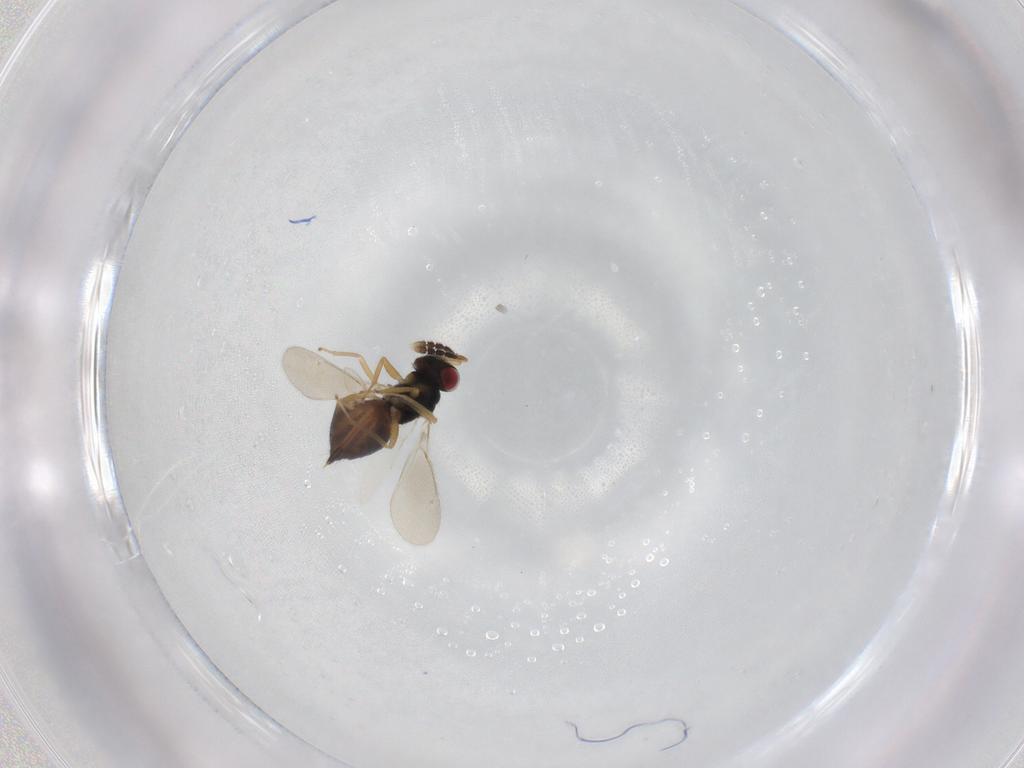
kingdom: Animalia
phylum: Arthropoda
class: Insecta
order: Hymenoptera
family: Eulophidae
